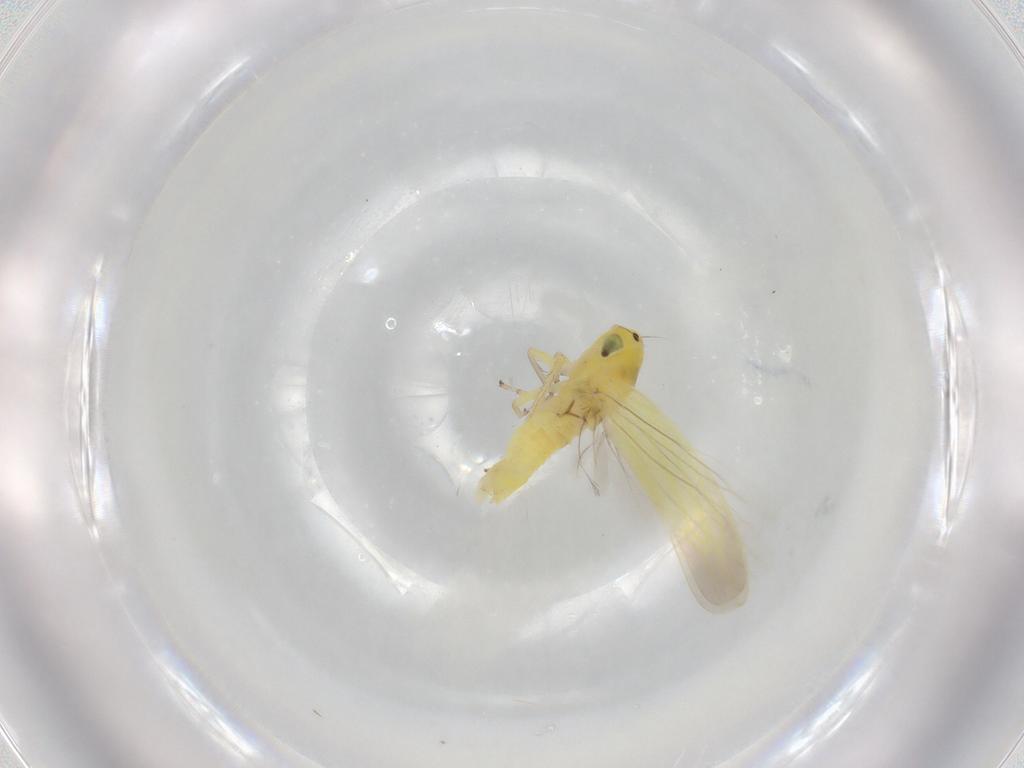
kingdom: Animalia
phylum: Arthropoda
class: Insecta
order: Hemiptera
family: Cicadellidae
